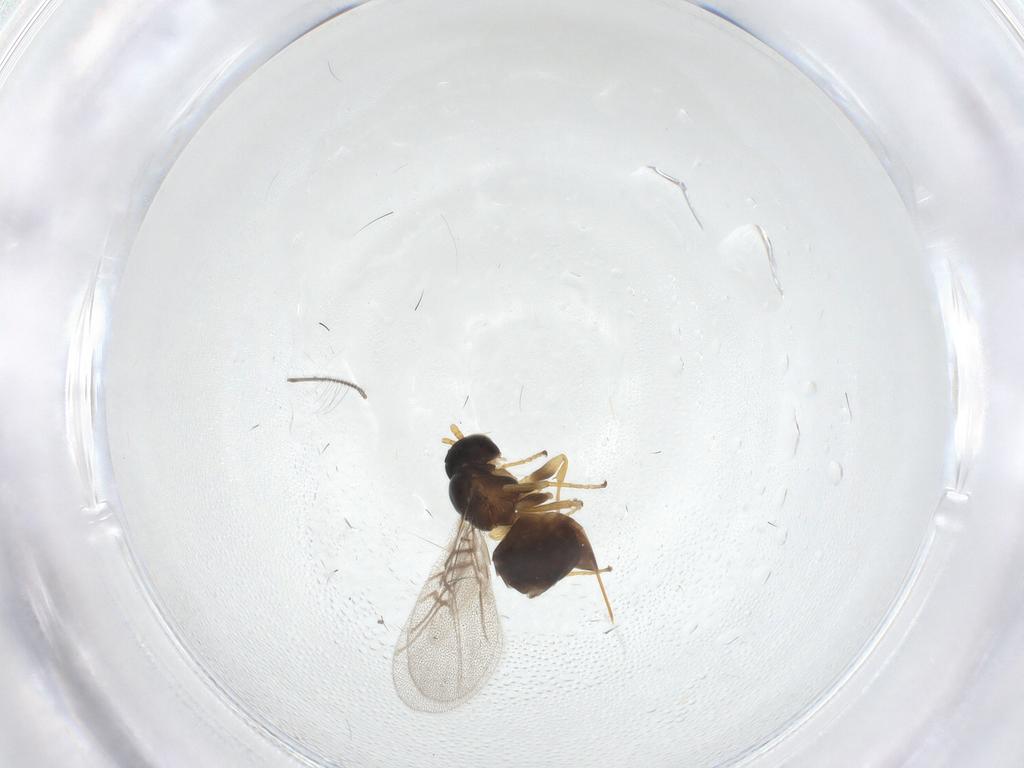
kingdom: Animalia
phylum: Arthropoda
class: Insecta
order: Hymenoptera
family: Cynipidae
